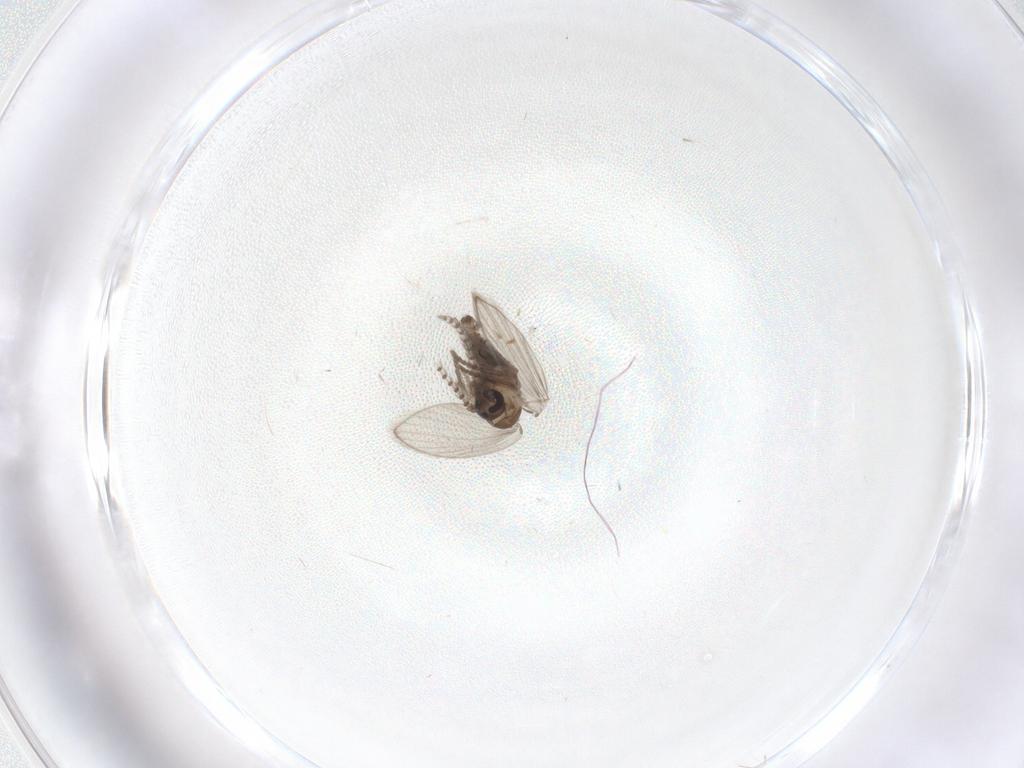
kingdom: Animalia
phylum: Arthropoda
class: Insecta
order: Diptera
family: Psychodidae
